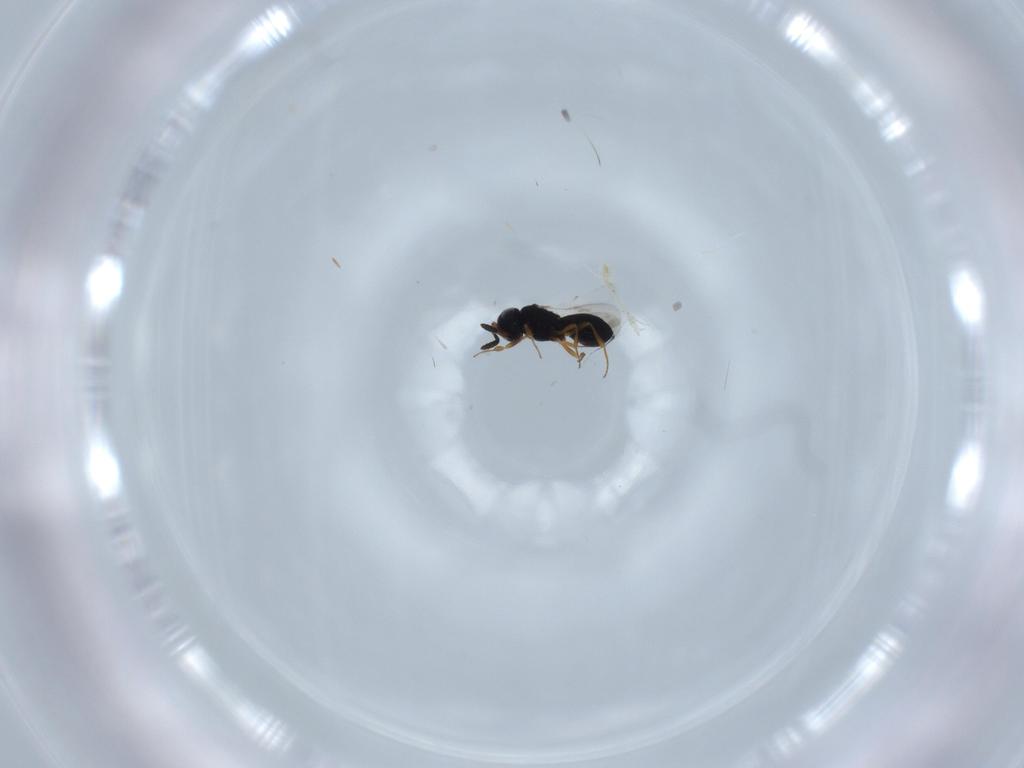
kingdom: Animalia
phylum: Arthropoda
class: Insecta
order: Hymenoptera
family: Scelionidae
